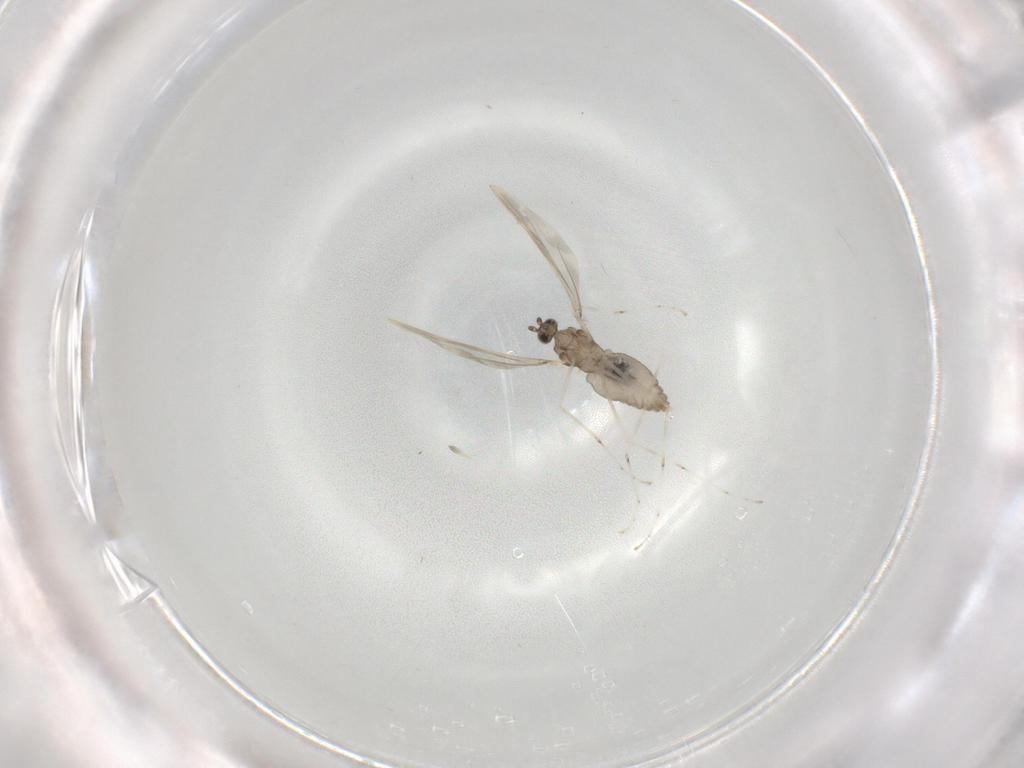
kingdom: Animalia
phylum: Arthropoda
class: Insecta
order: Diptera
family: Cecidomyiidae
